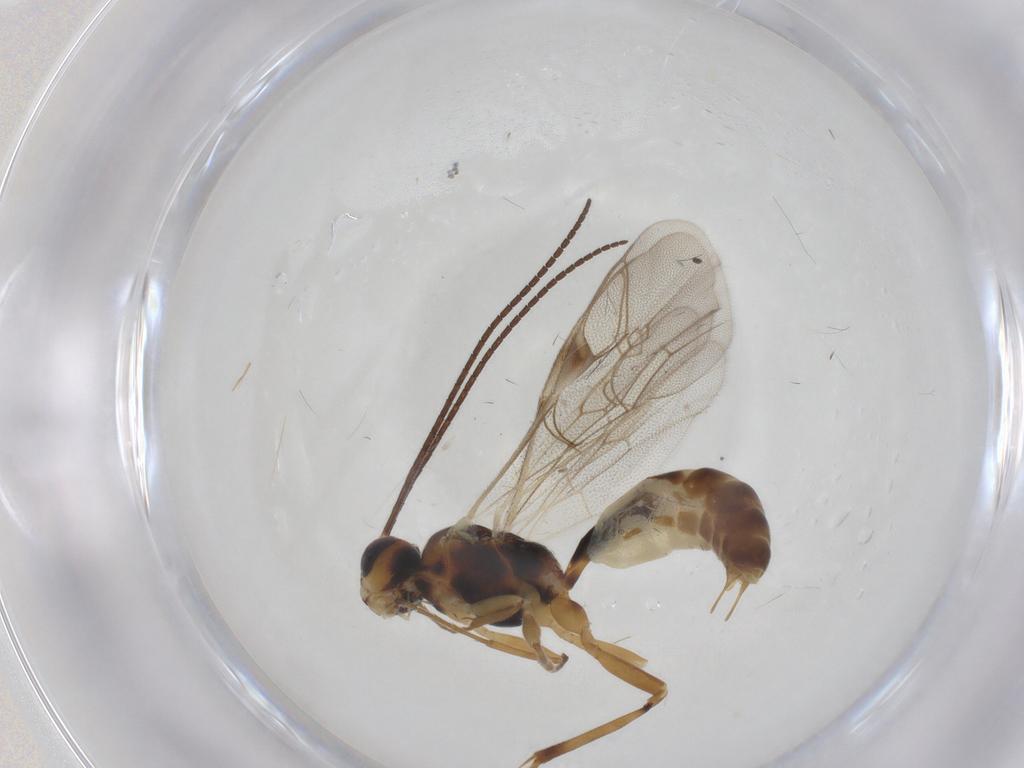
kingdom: Animalia
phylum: Arthropoda
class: Insecta
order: Hymenoptera
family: Ichneumonidae
